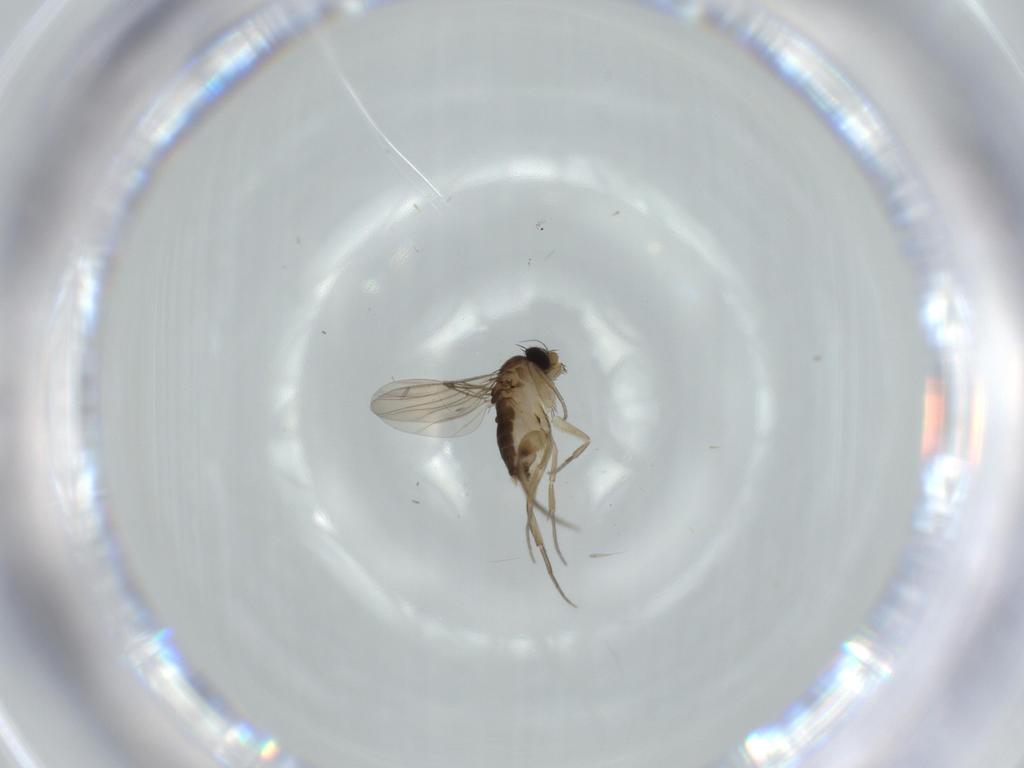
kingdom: Animalia
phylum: Arthropoda
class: Insecta
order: Diptera
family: Phoridae
